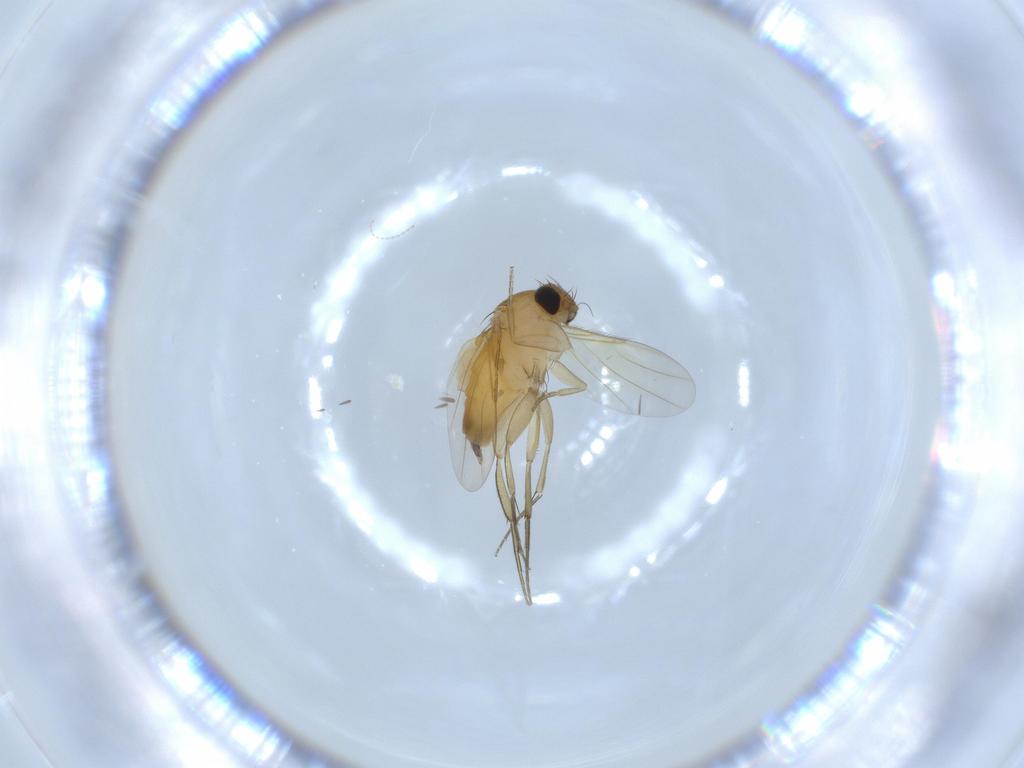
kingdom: Animalia
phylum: Arthropoda
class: Insecta
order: Diptera
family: Phoridae
